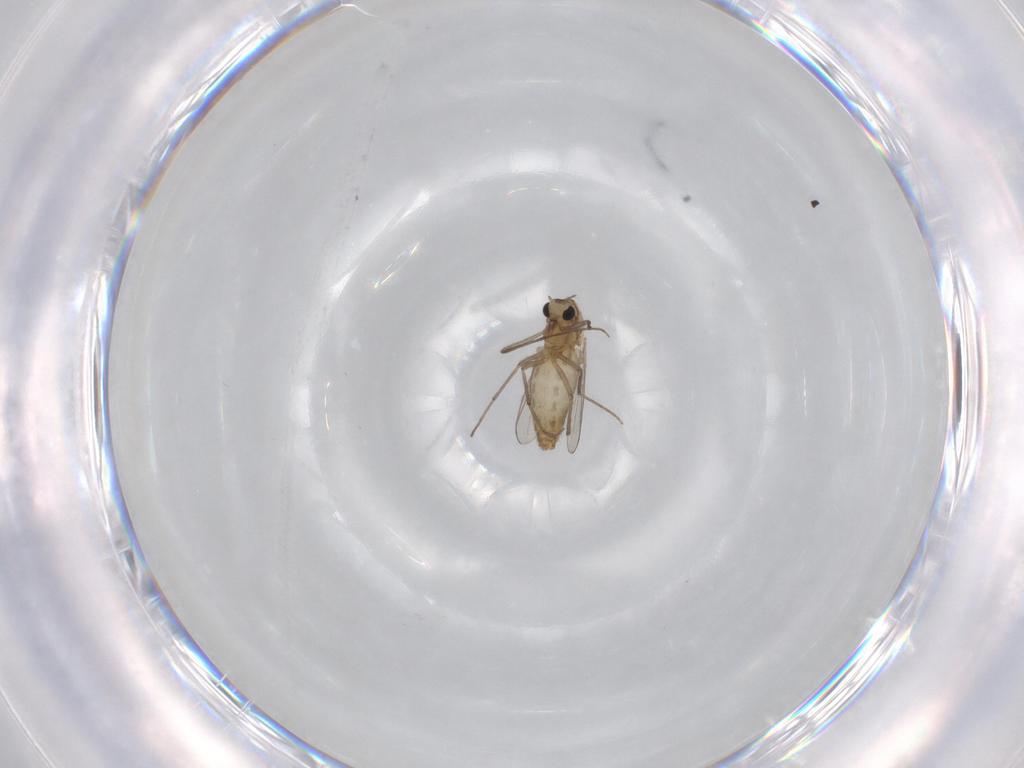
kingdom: Animalia
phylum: Arthropoda
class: Insecta
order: Diptera
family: Chironomidae
